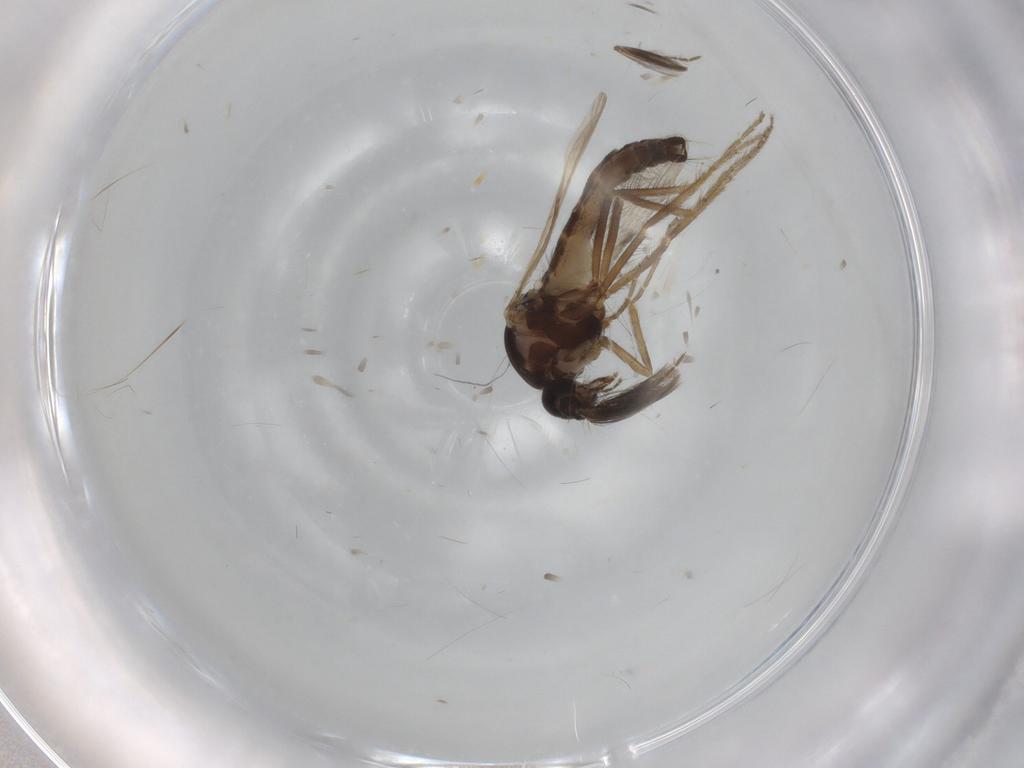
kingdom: Animalia
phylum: Arthropoda
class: Insecta
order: Diptera
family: Ceratopogonidae
